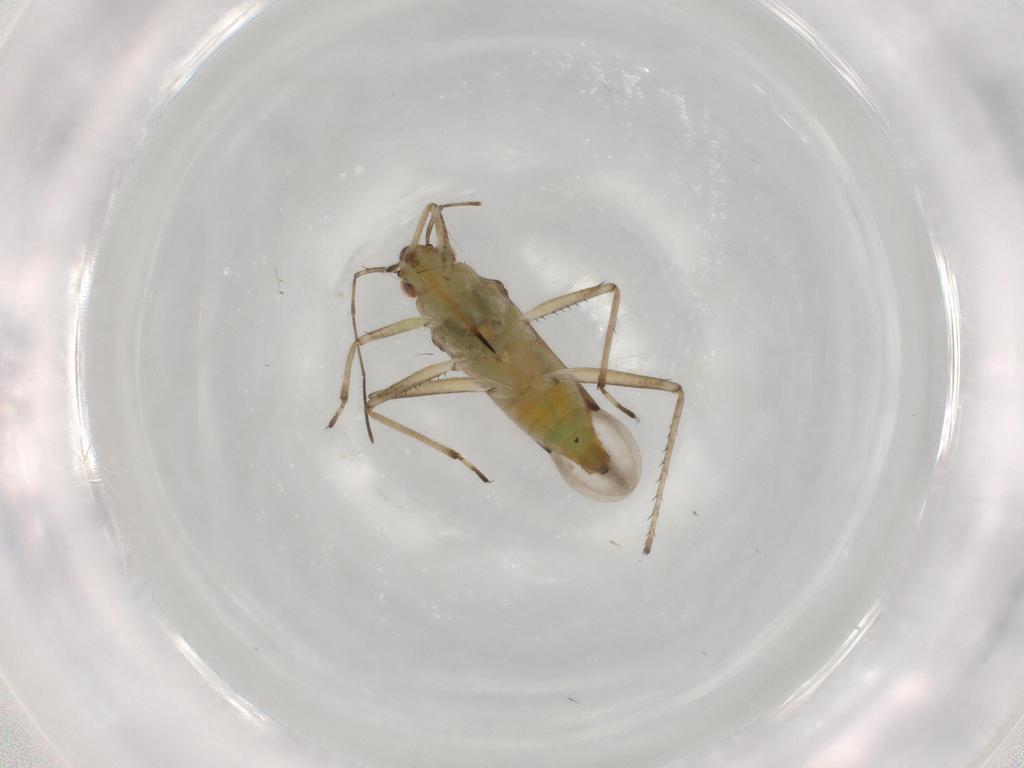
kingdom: Animalia
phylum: Arthropoda
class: Insecta
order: Hemiptera
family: Mesoveliidae
